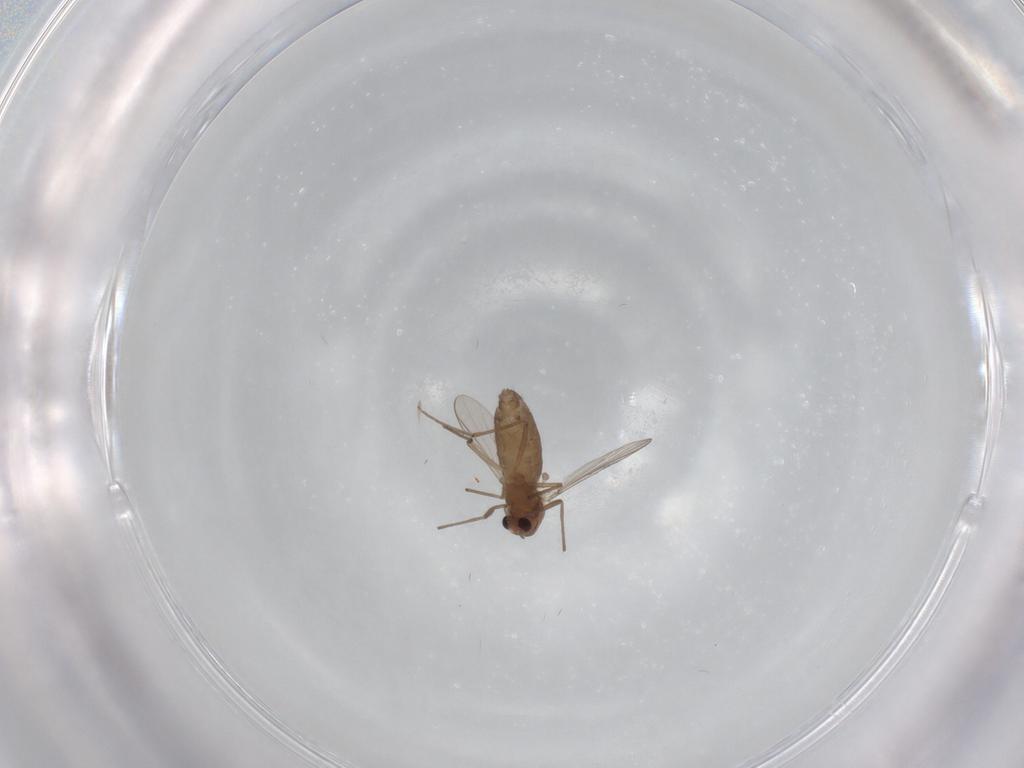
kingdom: Animalia
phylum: Arthropoda
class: Insecta
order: Diptera
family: Chironomidae
